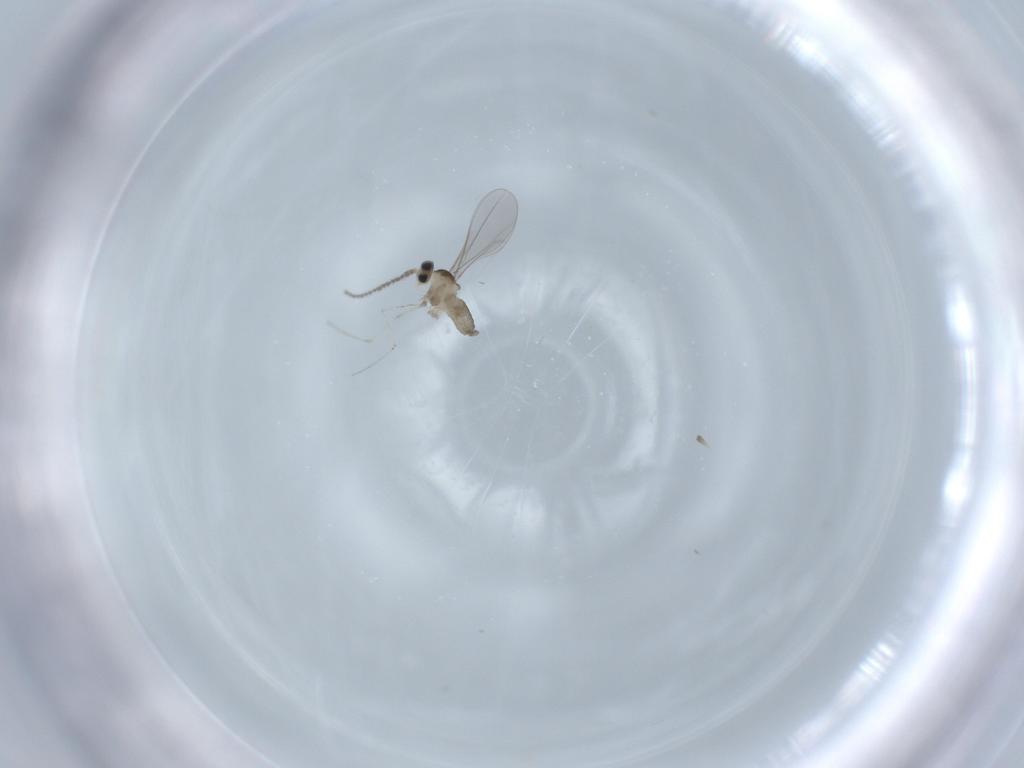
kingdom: Animalia
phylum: Arthropoda
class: Insecta
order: Diptera
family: Cecidomyiidae
